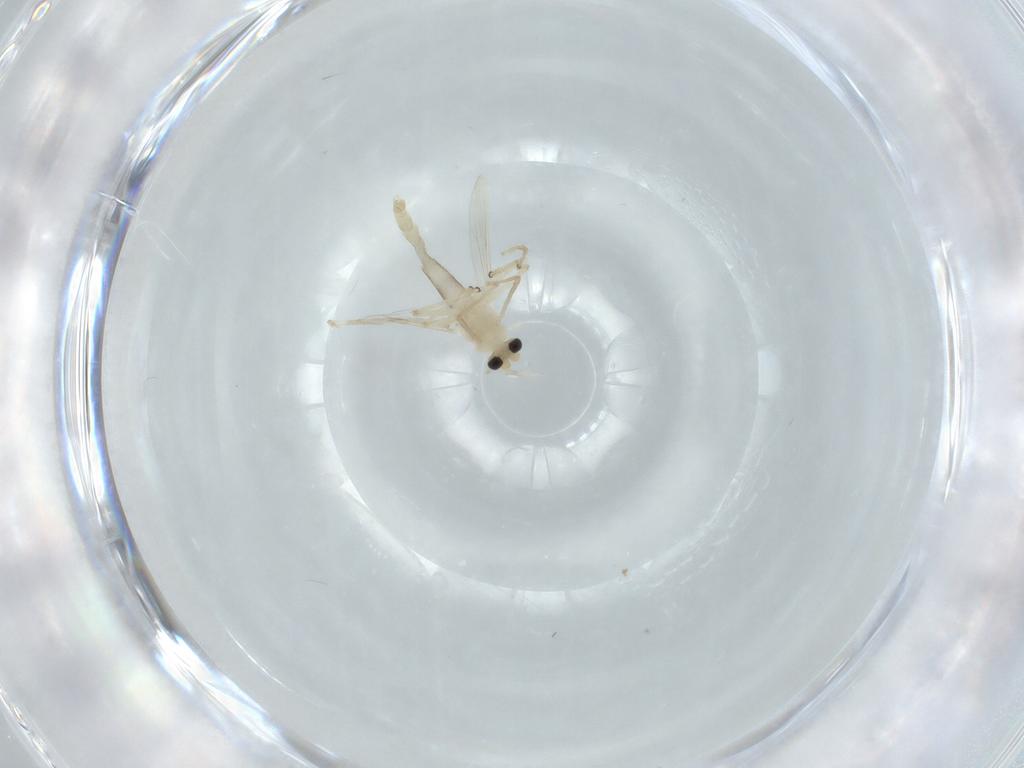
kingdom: Animalia
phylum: Arthropoda
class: Insecta
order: Diptera
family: Chironomidae
